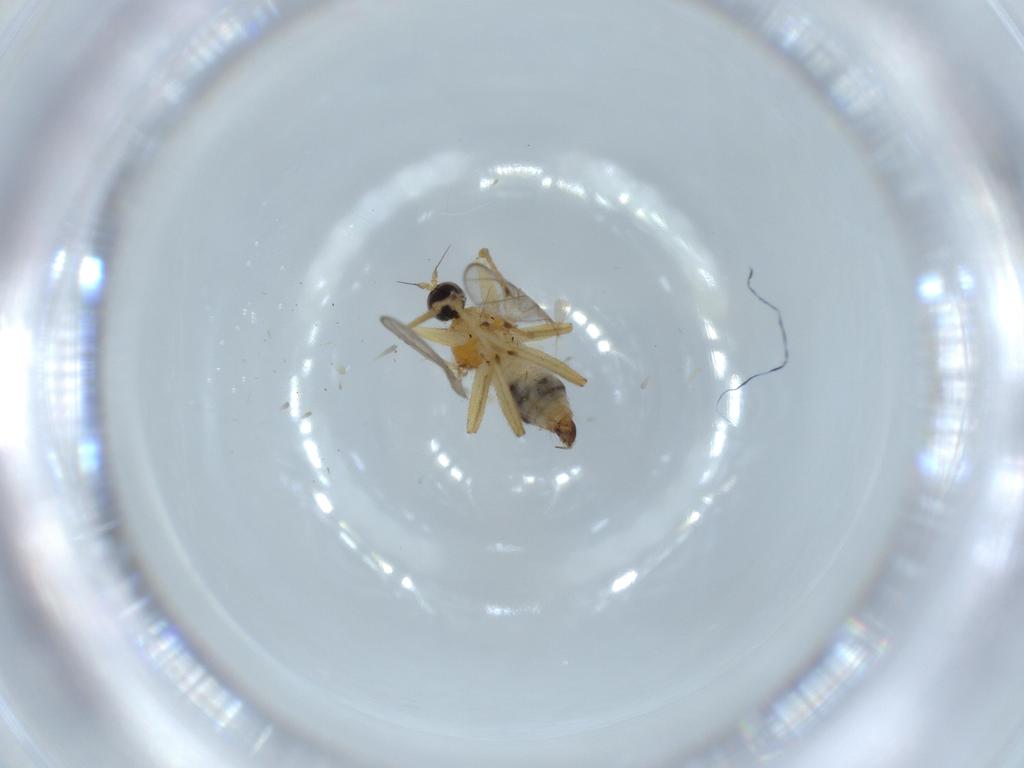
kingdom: Animalia
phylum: Arthropoda
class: Insecta
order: Diptera
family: Hybotidae
